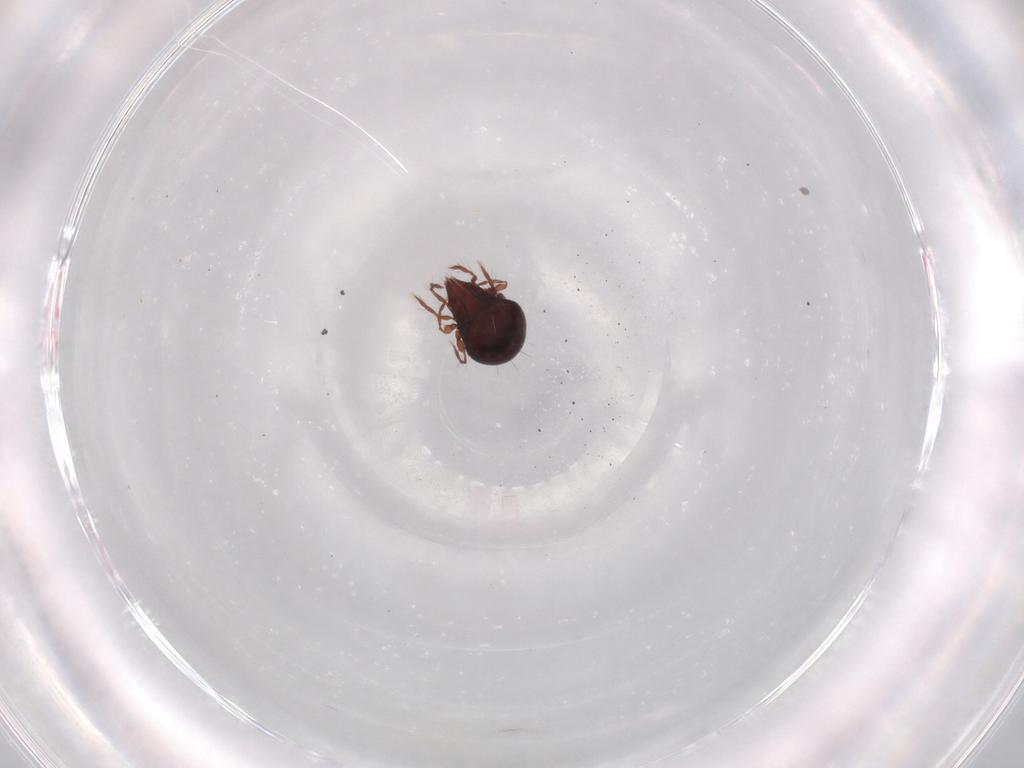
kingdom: Animalia
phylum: Arthropoda
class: Arachnida
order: Sarcoptiformes
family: Ceratoppiidae
